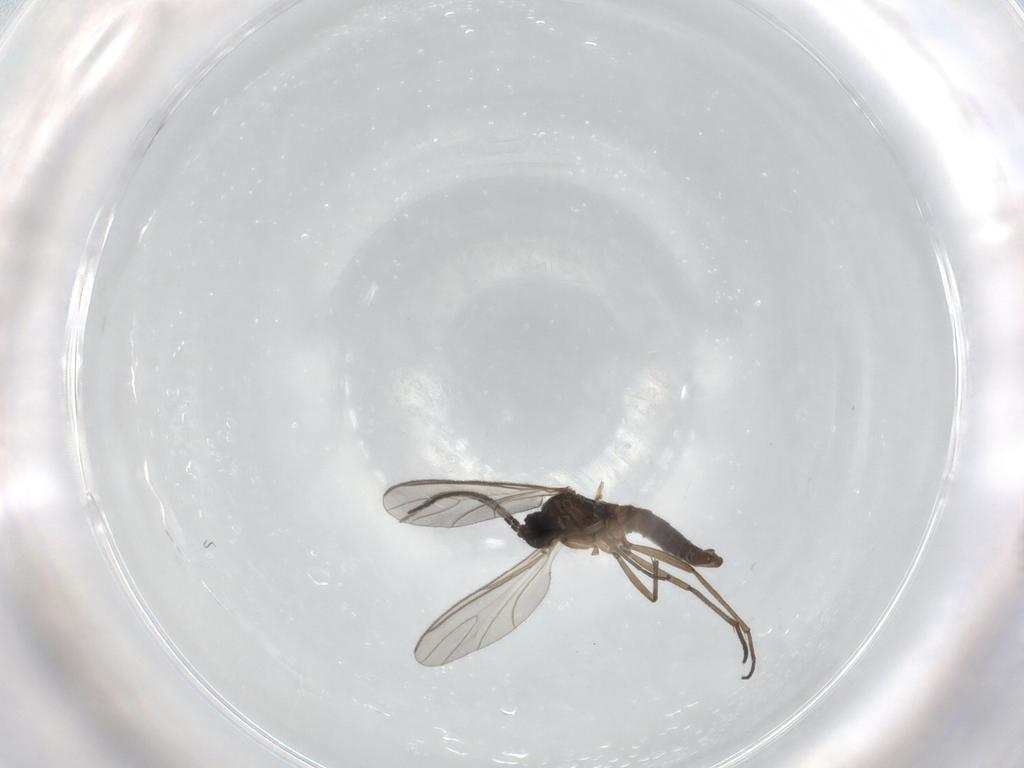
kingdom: Animalia
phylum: Arthropoda
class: Insecta
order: Diptera
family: Sciaridae
